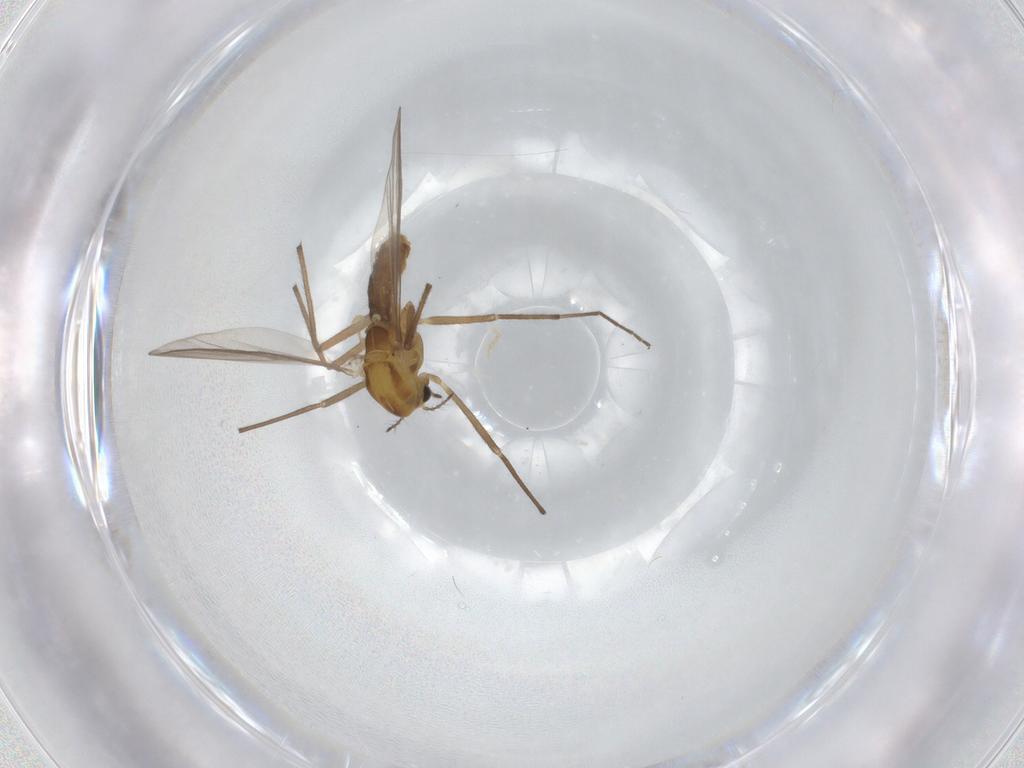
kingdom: Animalia
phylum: Arthropoda
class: Insecta
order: Diptera
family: Chironomidae
